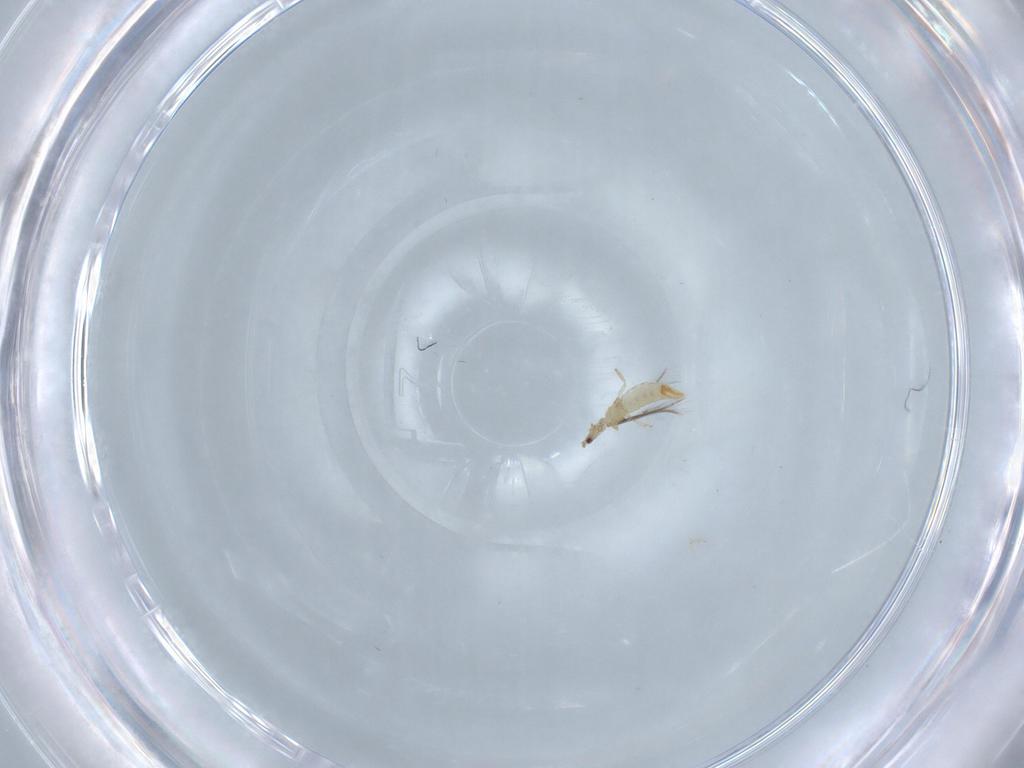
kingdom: Animalia
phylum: Arthropoda
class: Insecta
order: Thysanoptera
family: Thripidae
